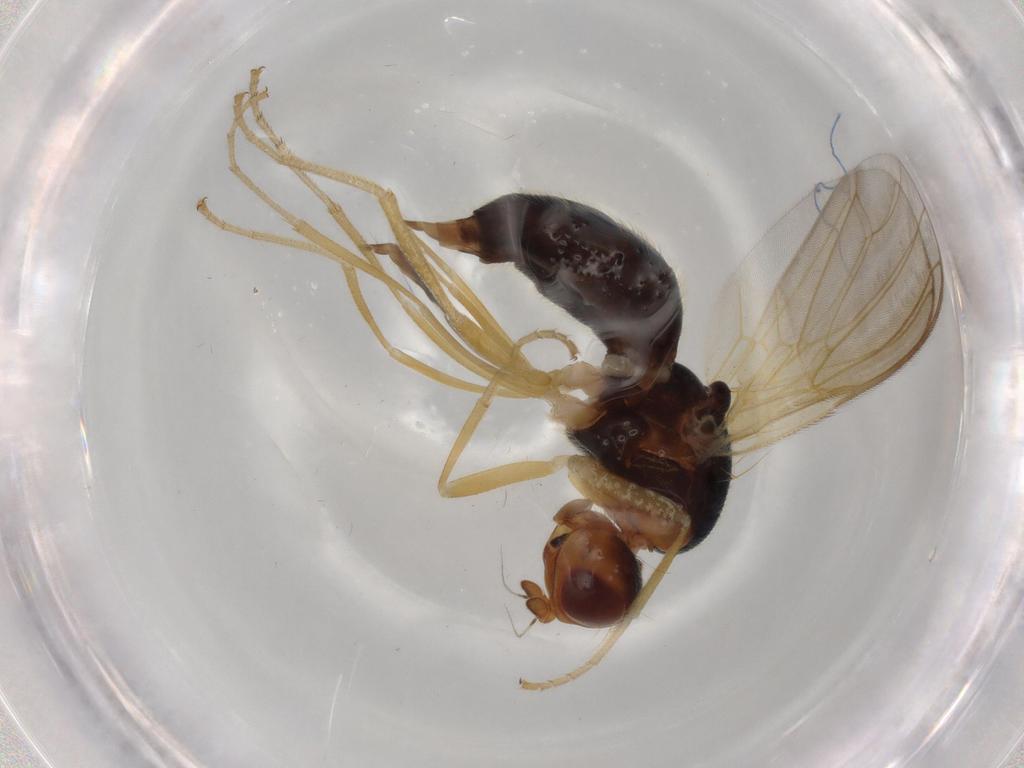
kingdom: Animalia
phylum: Arthropoda
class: Insecta
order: Diptera
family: Psilidae
